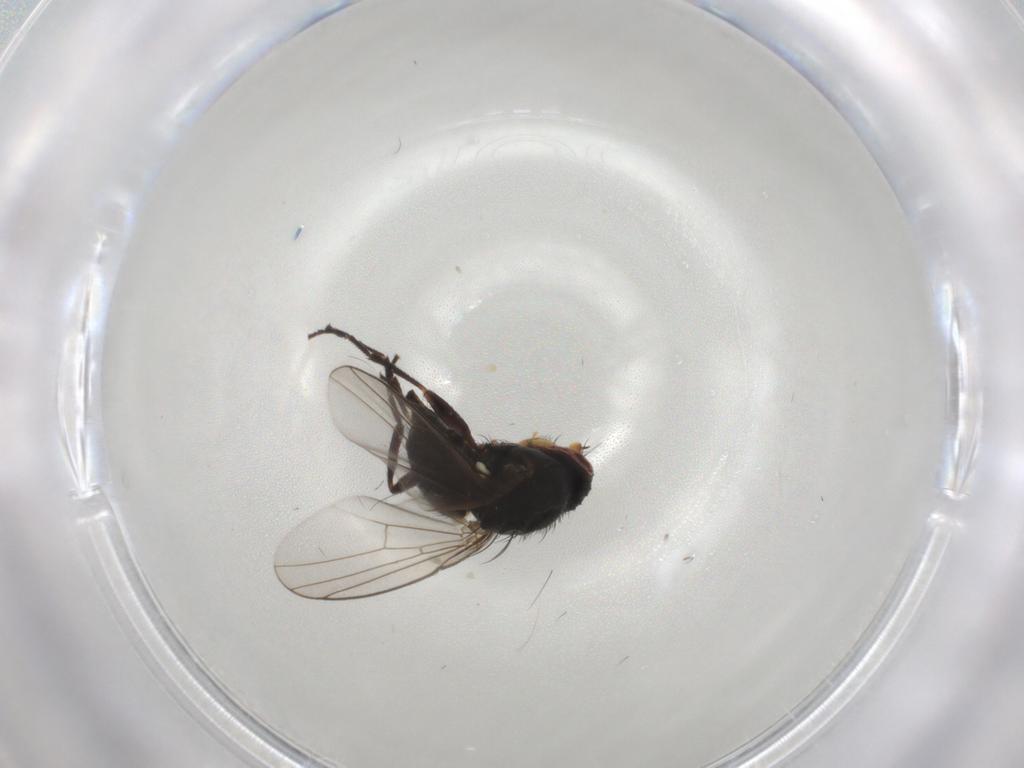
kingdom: Animalia
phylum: Arthropoda
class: Insecta
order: Diptera
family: Agromyzidae
